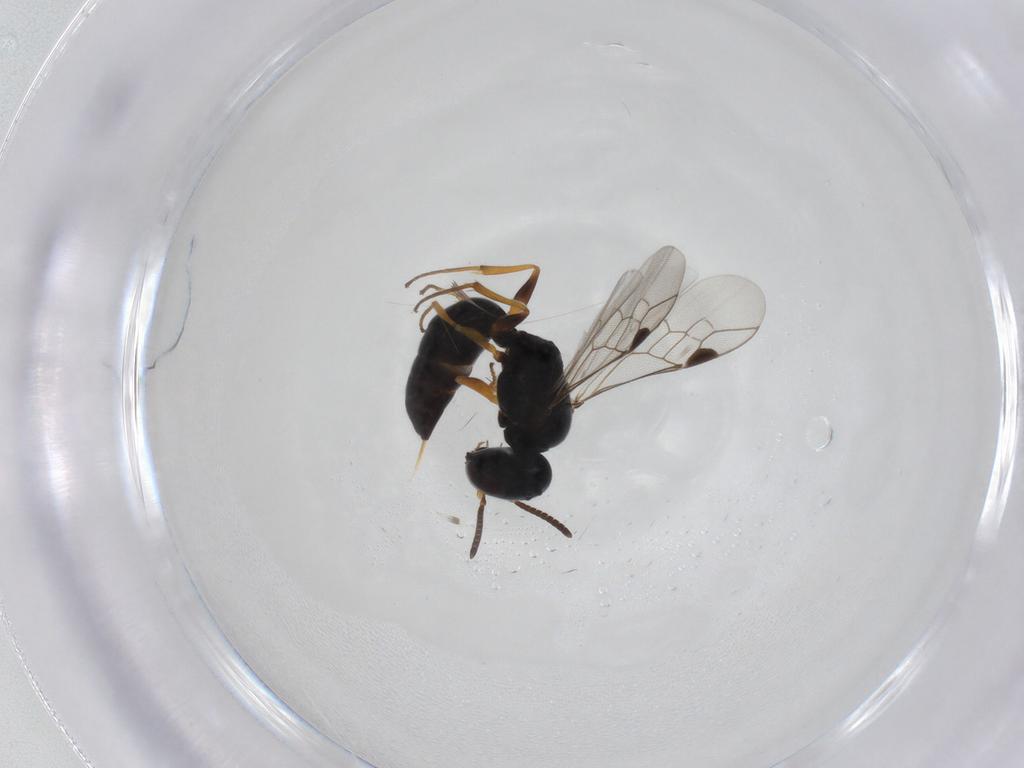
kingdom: Animalia
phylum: Arthropoda
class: Insecta
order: Hymenoptera
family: Crabronidae
